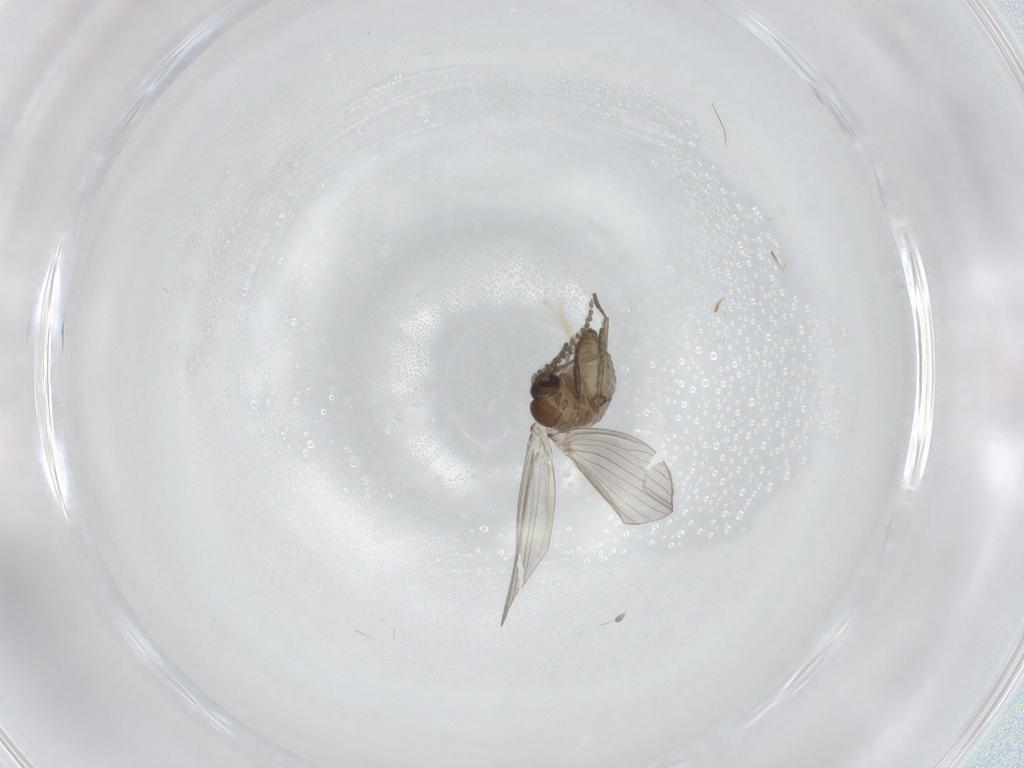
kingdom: Animalia
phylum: Arthropoda
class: Insecta
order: Diptera
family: Psychodidae
